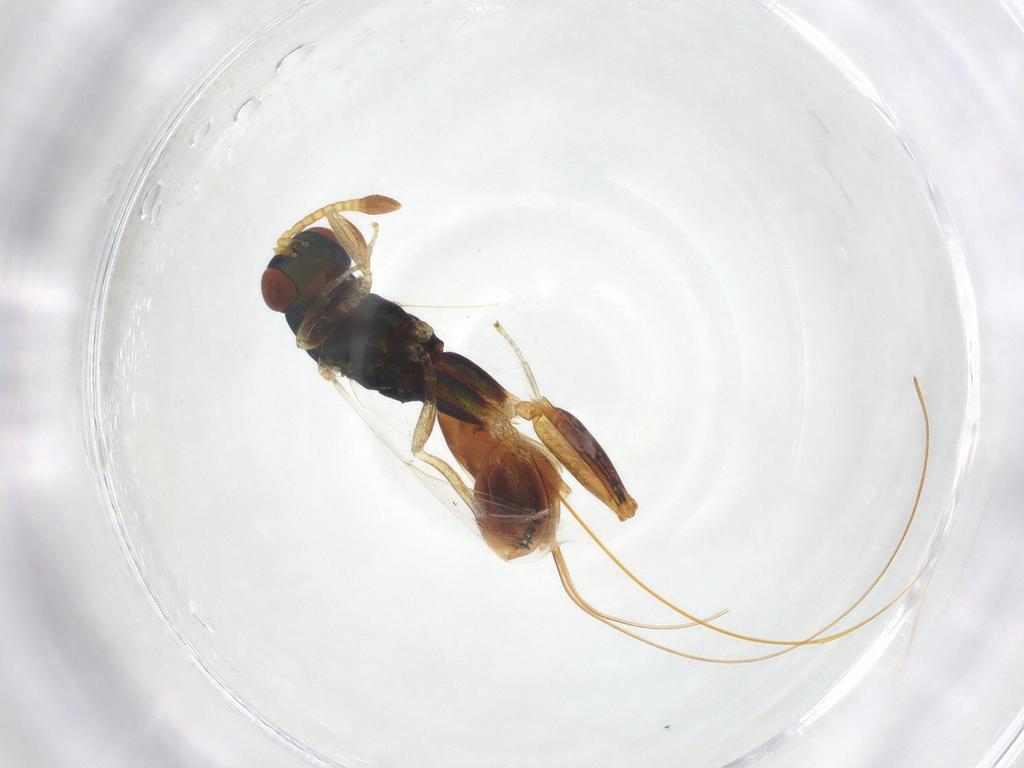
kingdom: Animalia
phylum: Arthropoda
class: Insecta
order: Hymenoptera
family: Torymidae
